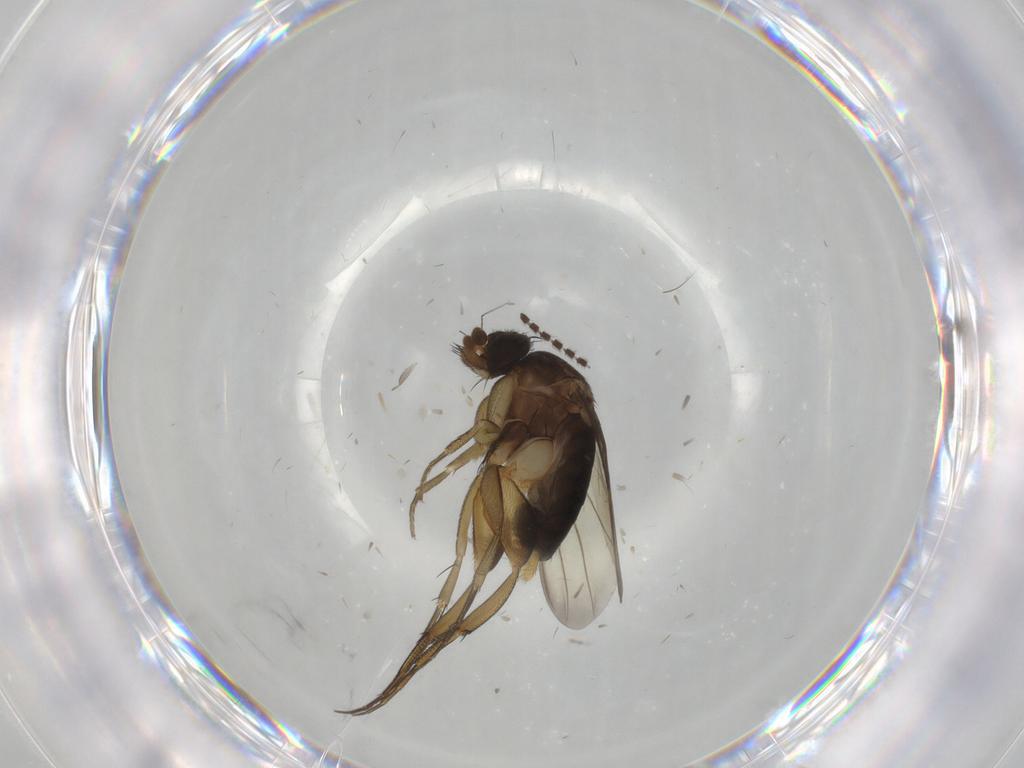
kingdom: Animalia
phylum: Arthropoda
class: Insecta
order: Diptera
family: Phoridae
